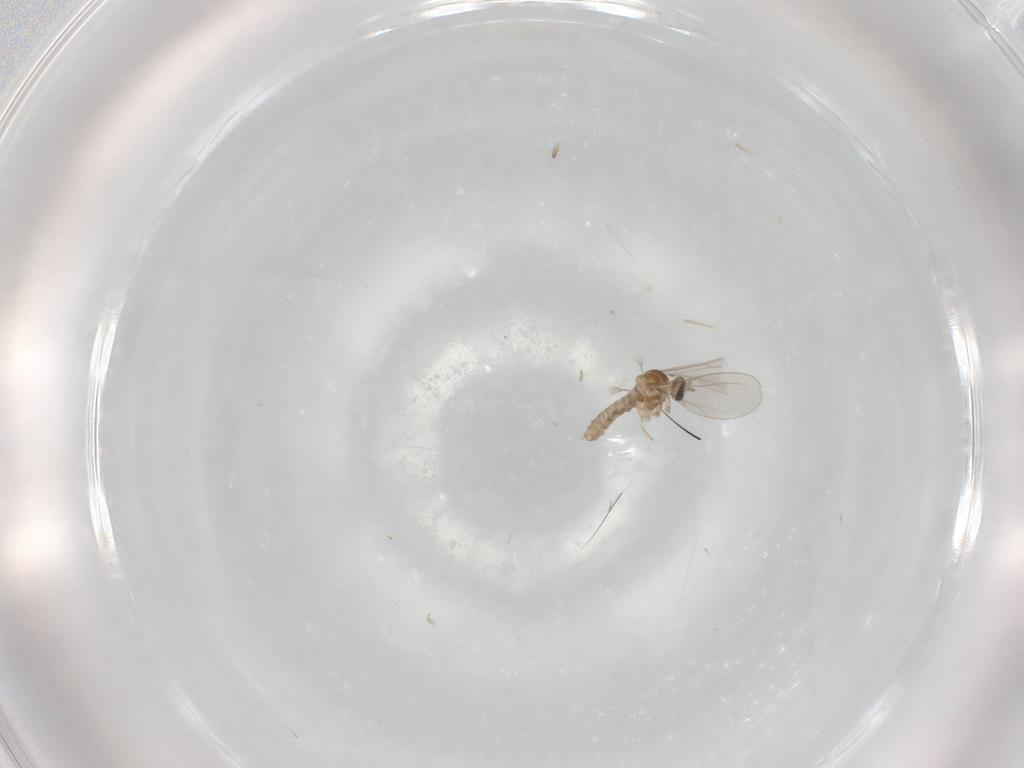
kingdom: Animalia
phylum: Arthropoda
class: Insecta
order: Diptera
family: Cecidomyiidae
